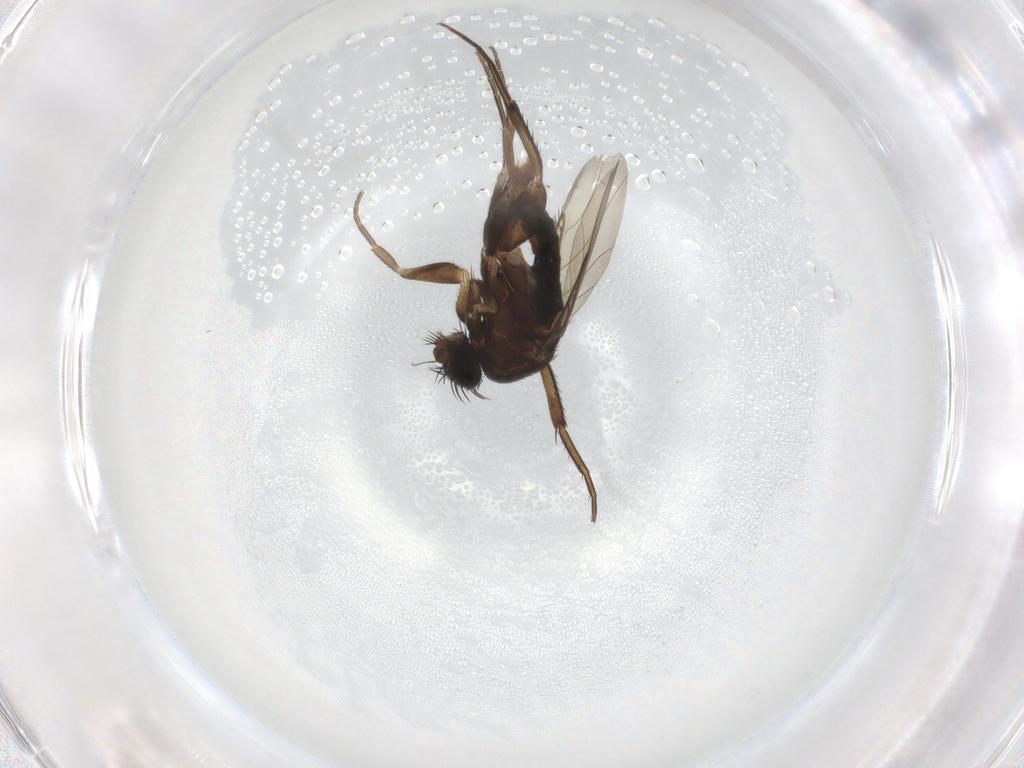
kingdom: Animalia
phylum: Arthropoda
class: Insecta
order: Diptera
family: Phoridae
